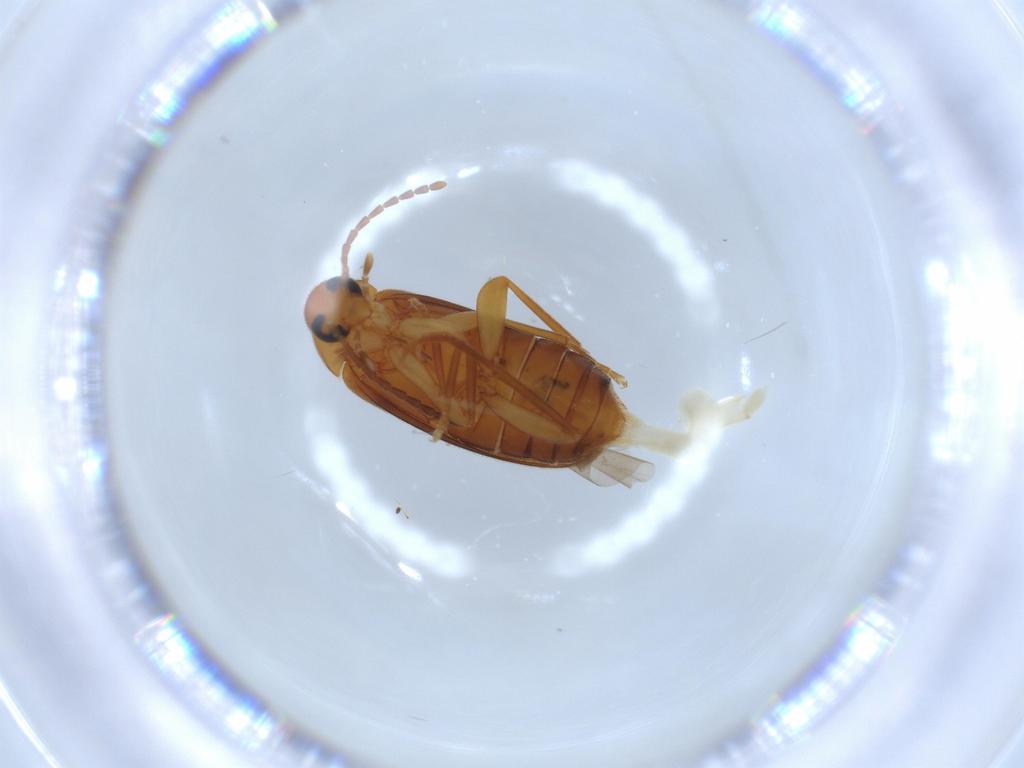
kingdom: Animalia
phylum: Arthropoda
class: Insecta
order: Coleoptera
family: Scraptiidae
